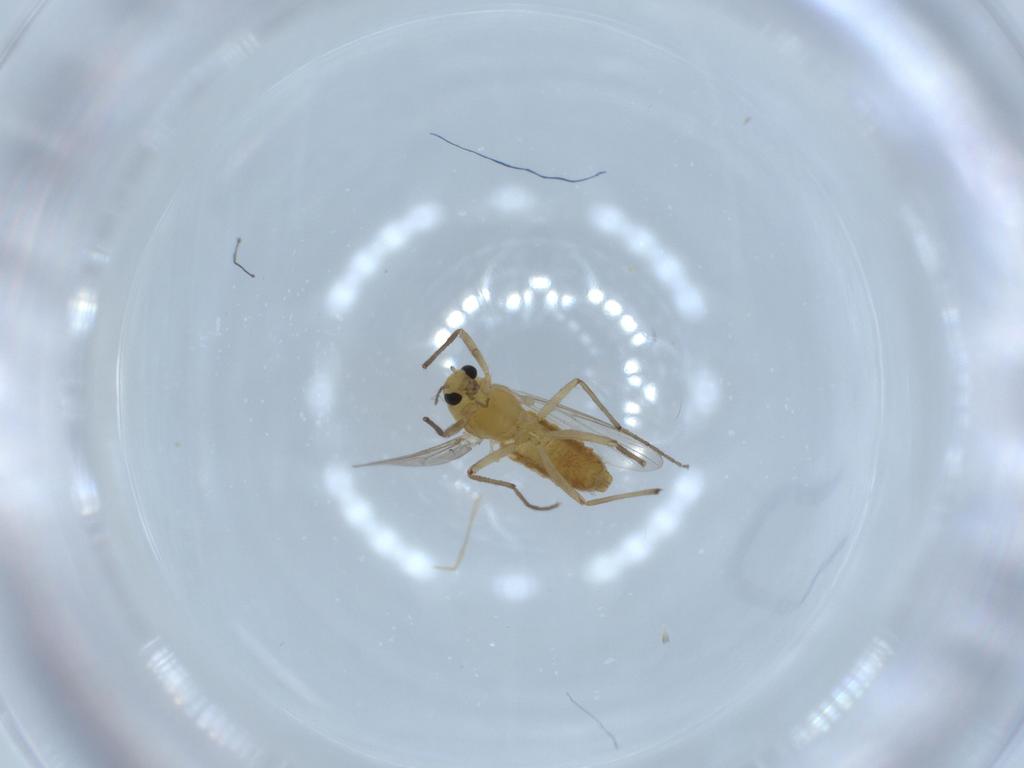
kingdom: Animalia
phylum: Arthropoda
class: Insecta
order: Diptera
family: Chironomidae
